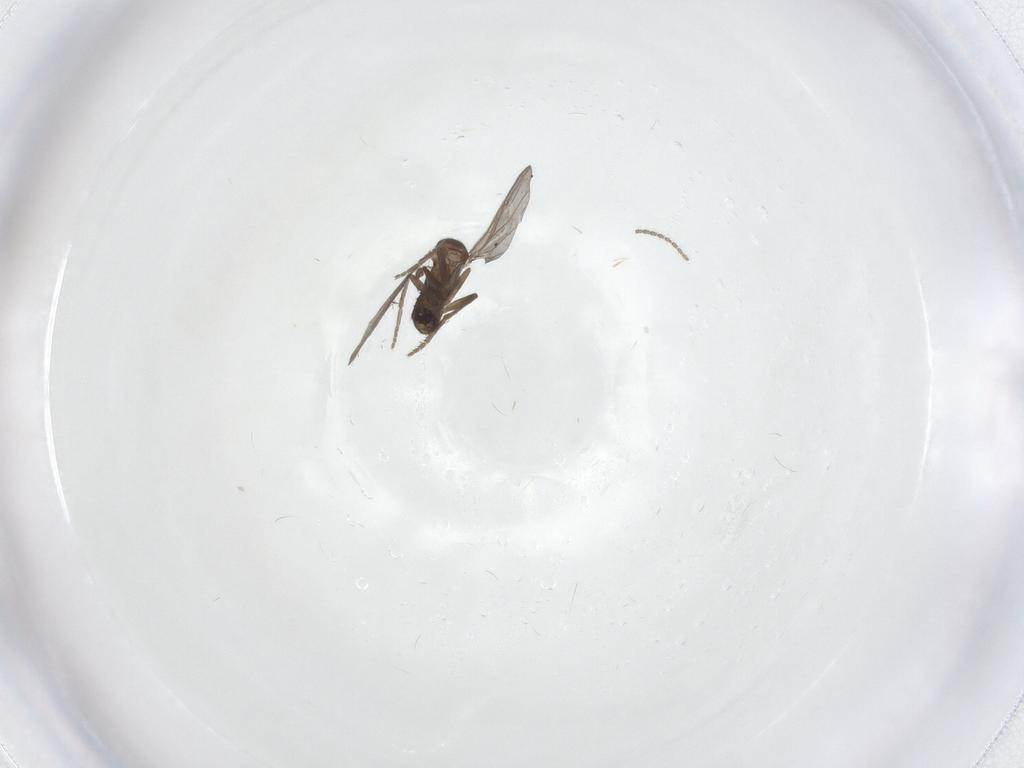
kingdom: Animalia
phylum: Arthropoda
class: Insecta
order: Diptera
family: Cecidomyiidae
